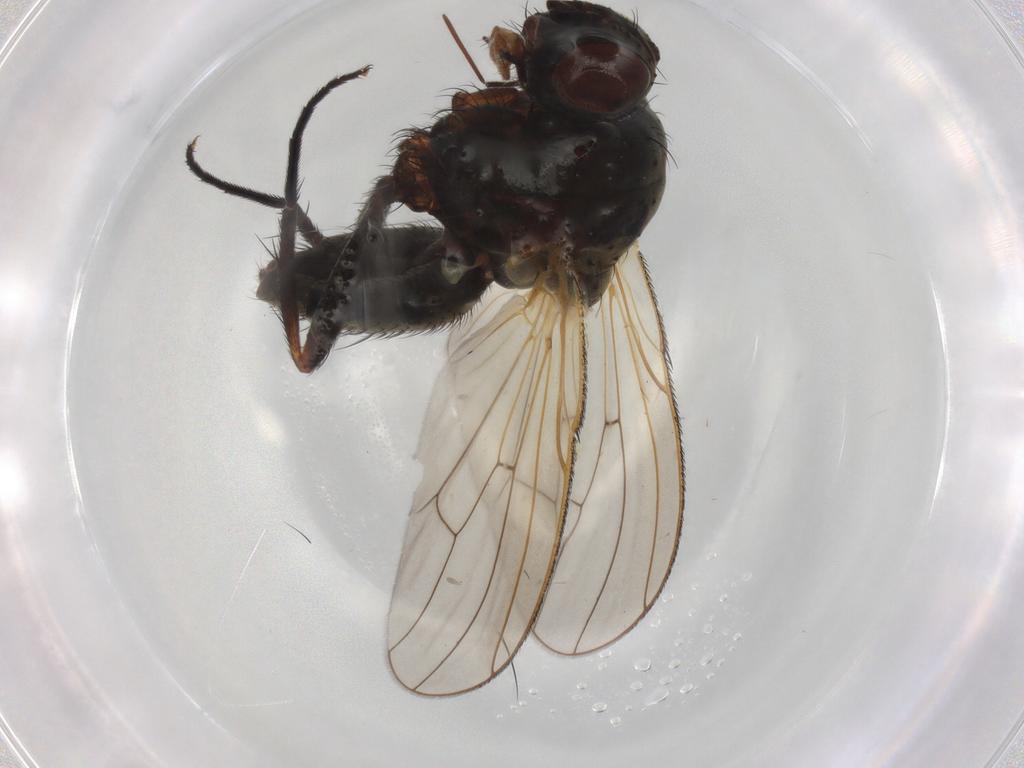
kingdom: Animalia
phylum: Arthropoda
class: Insecta
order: Diptera
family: Anthomyiidae
